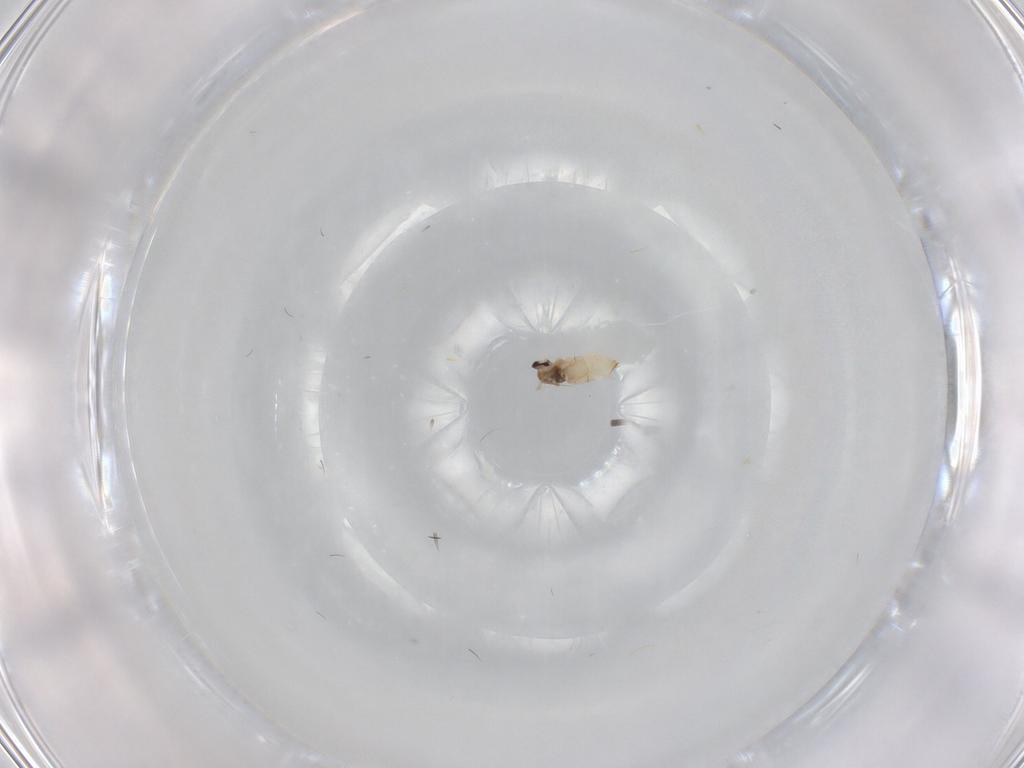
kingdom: Animalia
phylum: Arthropoda
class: Insecta
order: Diptera
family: Cecidomyiidae
